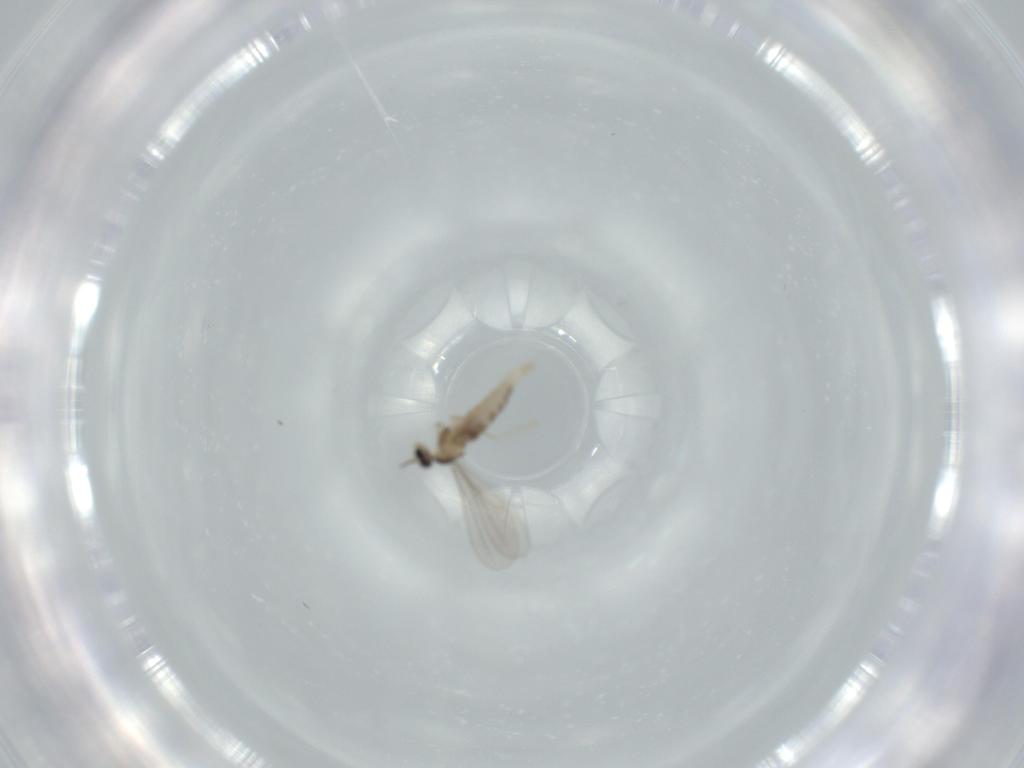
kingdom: Animalia
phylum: Arthropoda
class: Insecta
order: Diptera
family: Cecidomyiidae
